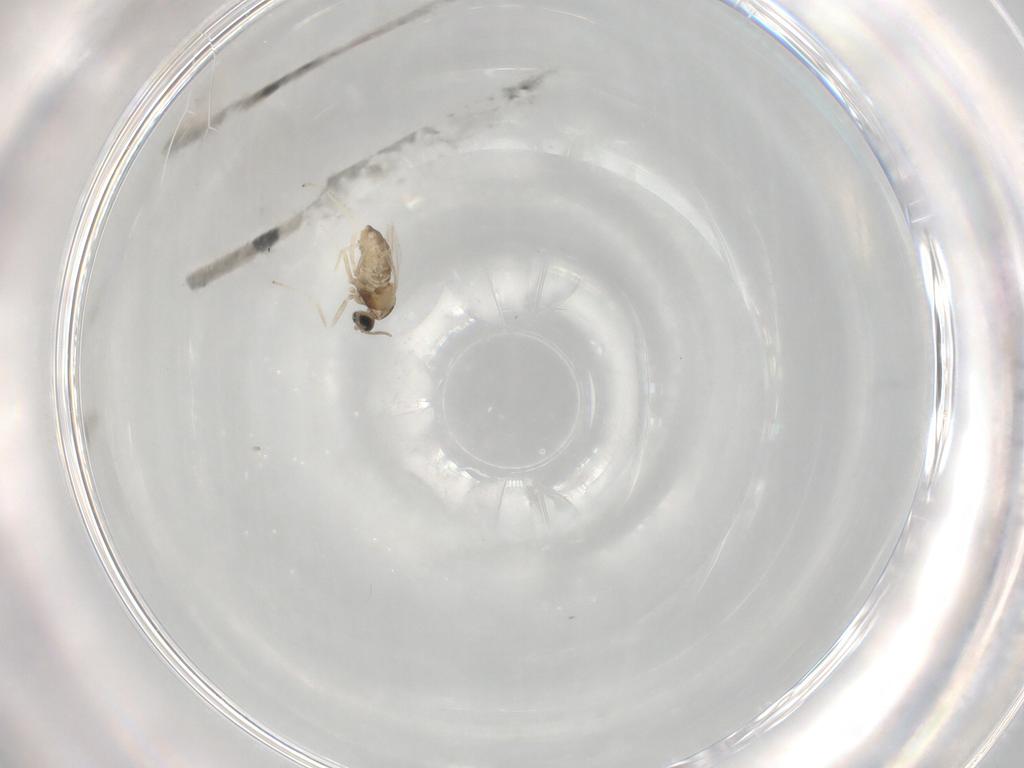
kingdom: Animalia
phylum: Arthropoda
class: Insecta
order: Diptera
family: Cecidomyiidae
